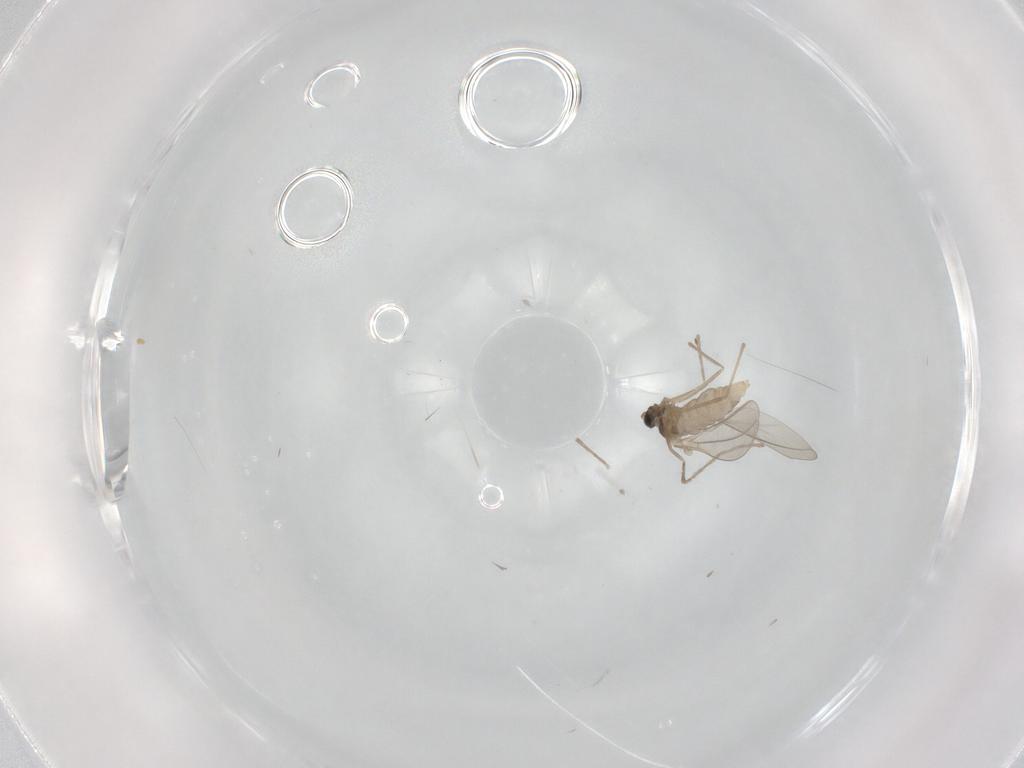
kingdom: Animalia
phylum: Arthropoda
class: Insecta
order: Diptera
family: Cecidomyiidae
